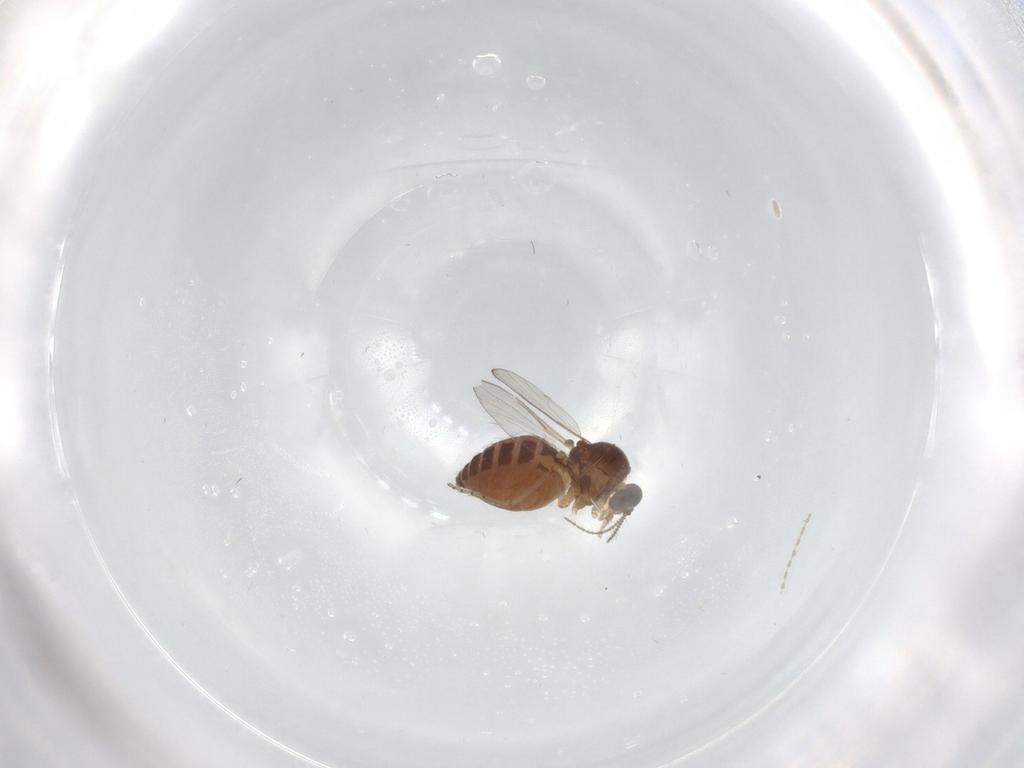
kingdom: Animalia
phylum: Arthropoda
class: Insecta
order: Diptera
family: Ceratopogonidae
